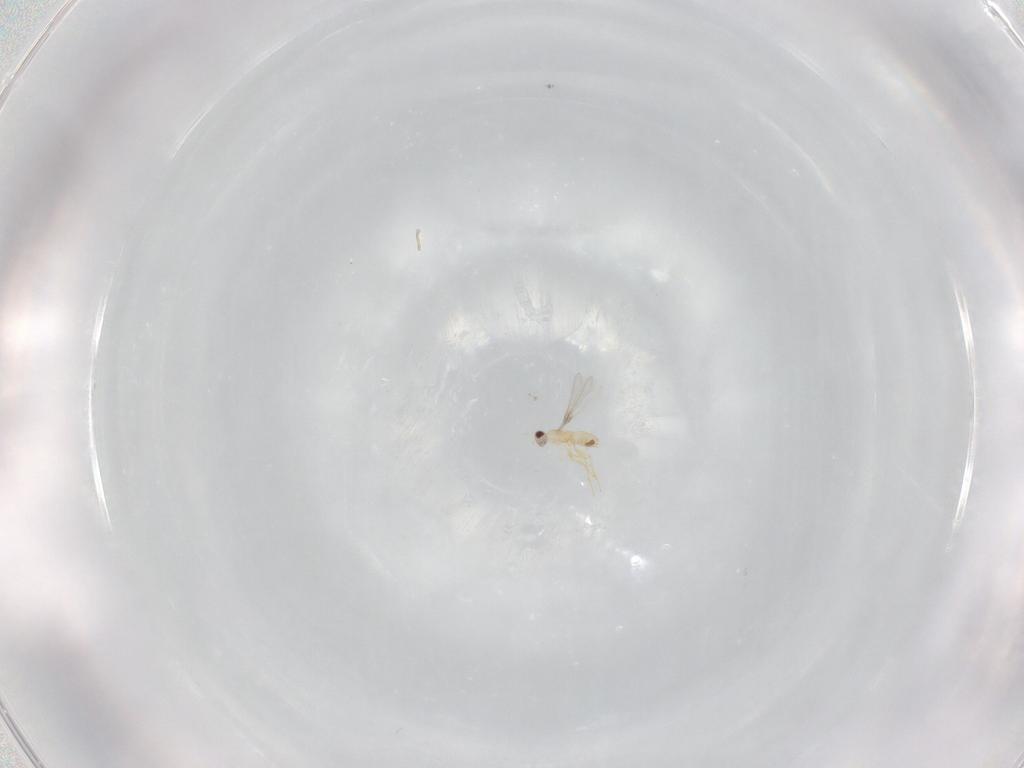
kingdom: Animalia
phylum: Arthropoda
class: Insecta
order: Hymenoptera
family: Mymaridae
